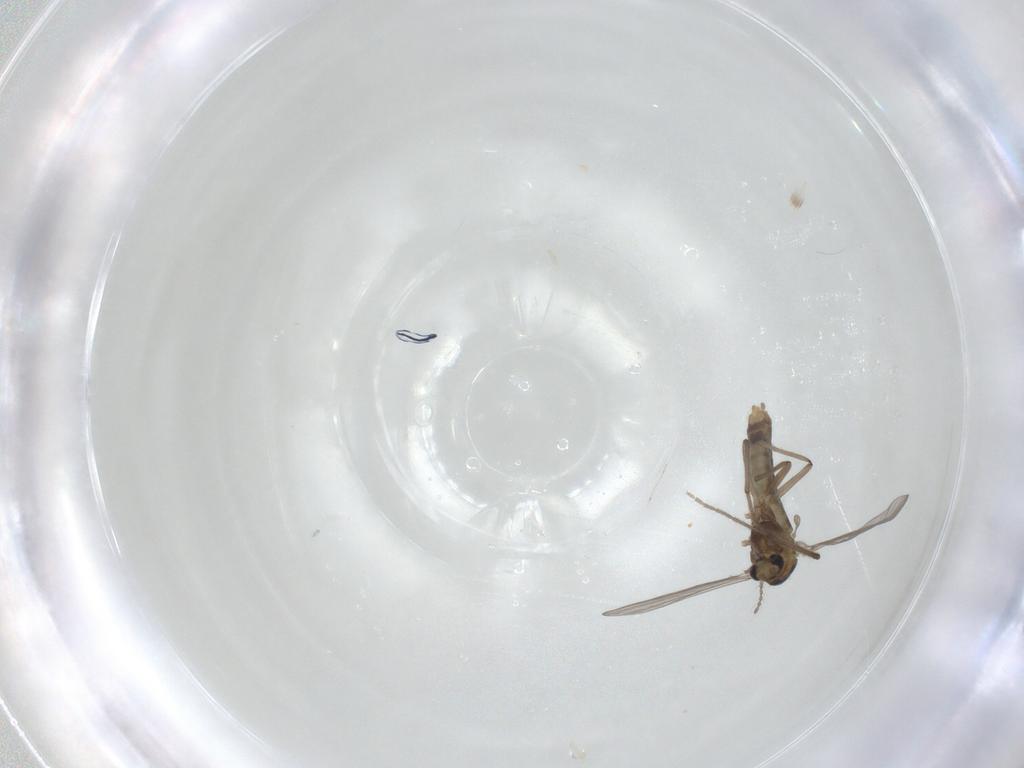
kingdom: Animalia
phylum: Arthropoda
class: Insecta
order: Diptera
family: Chironomidae
